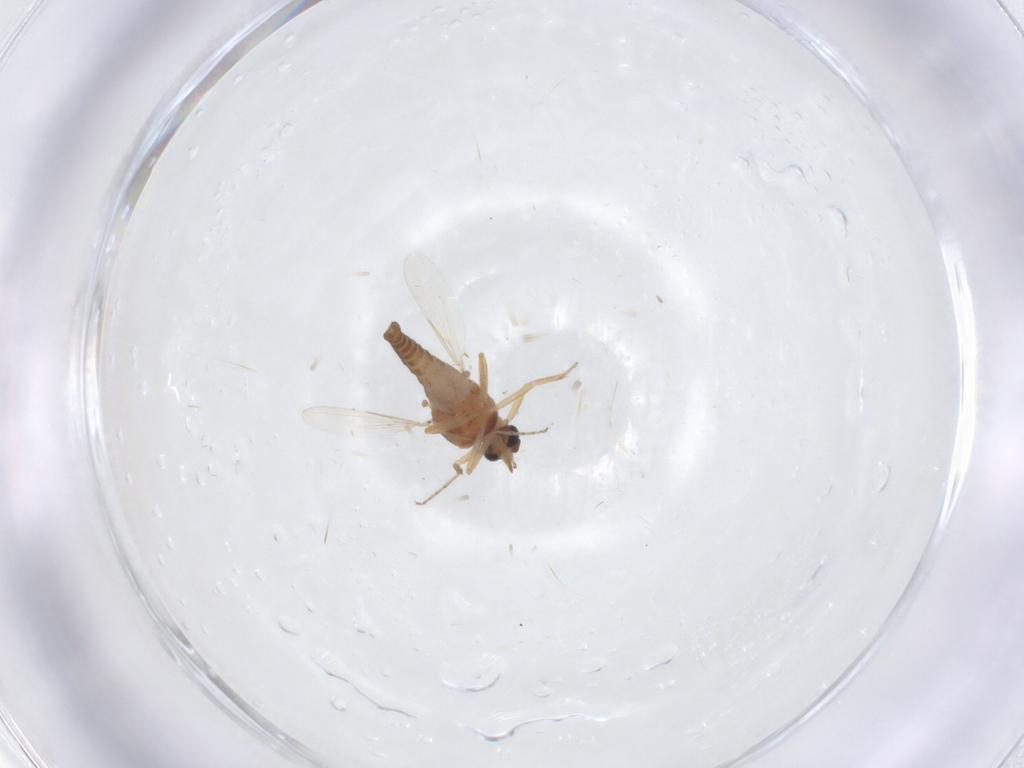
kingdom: Animalia
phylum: Arthropoda
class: Insecta
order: Diptera
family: Ceratopogonidae
